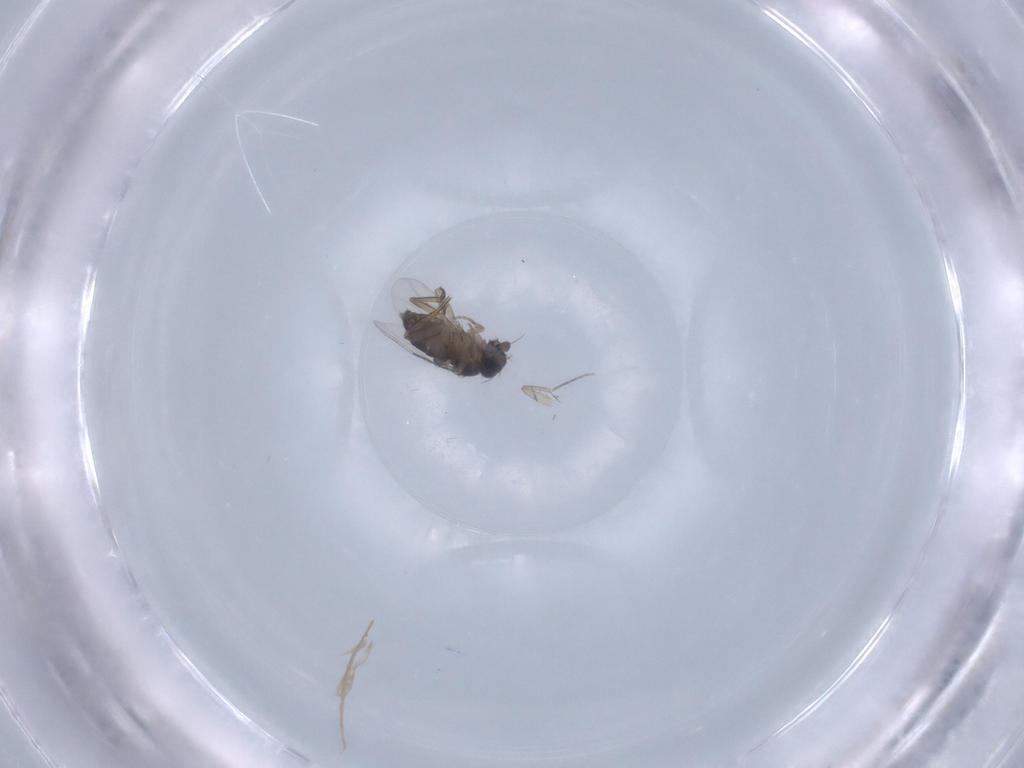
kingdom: Animalia
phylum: Arthropoda
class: Insecta
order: Diptera
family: Phoridae
